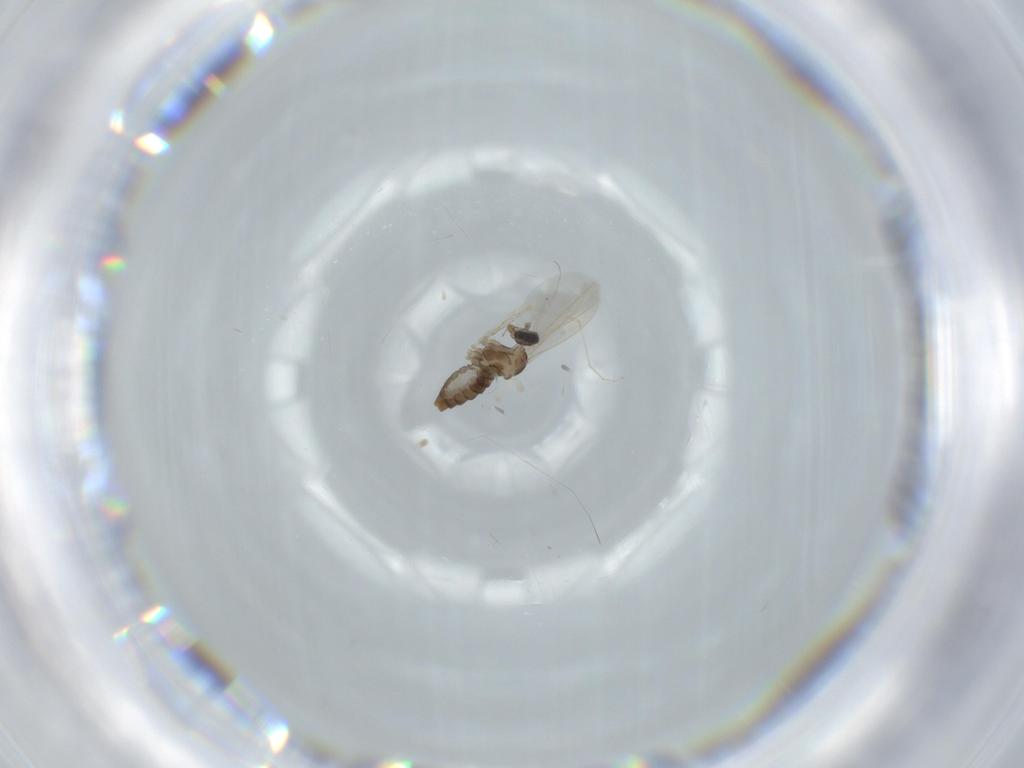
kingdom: Animalia
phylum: Arthropoda
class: Insecta
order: Diptera
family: Cecidomyiidae
